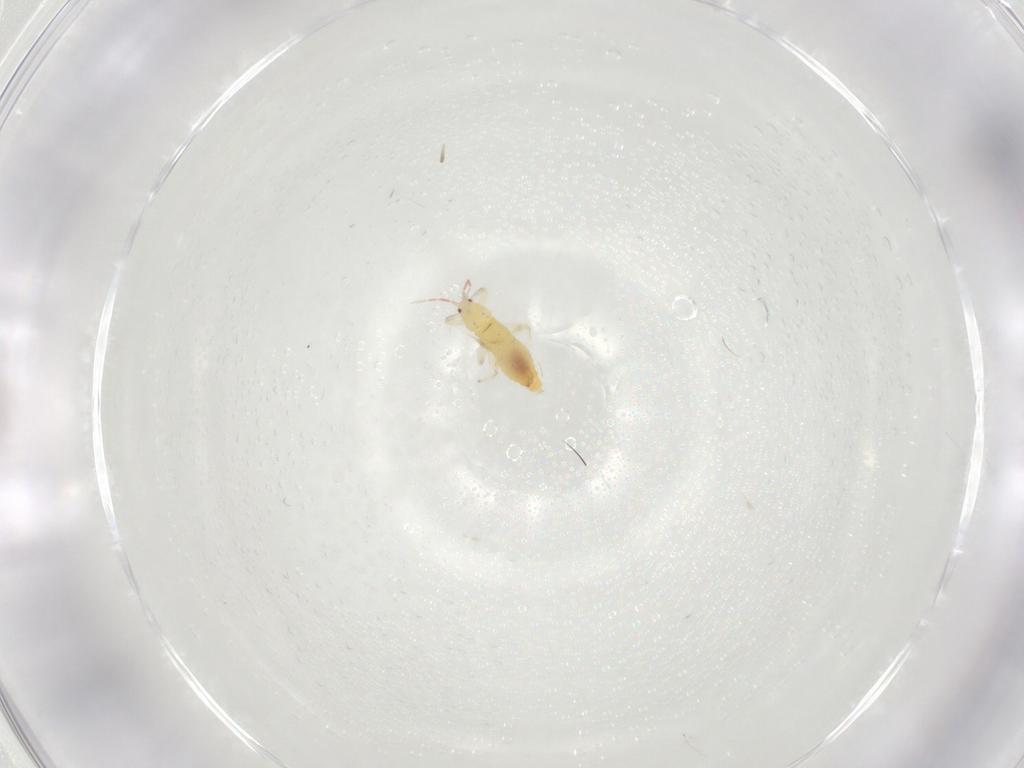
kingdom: Animalia
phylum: Arthropoda
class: Insecta
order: Thysanoptera
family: Aeolothripidae
